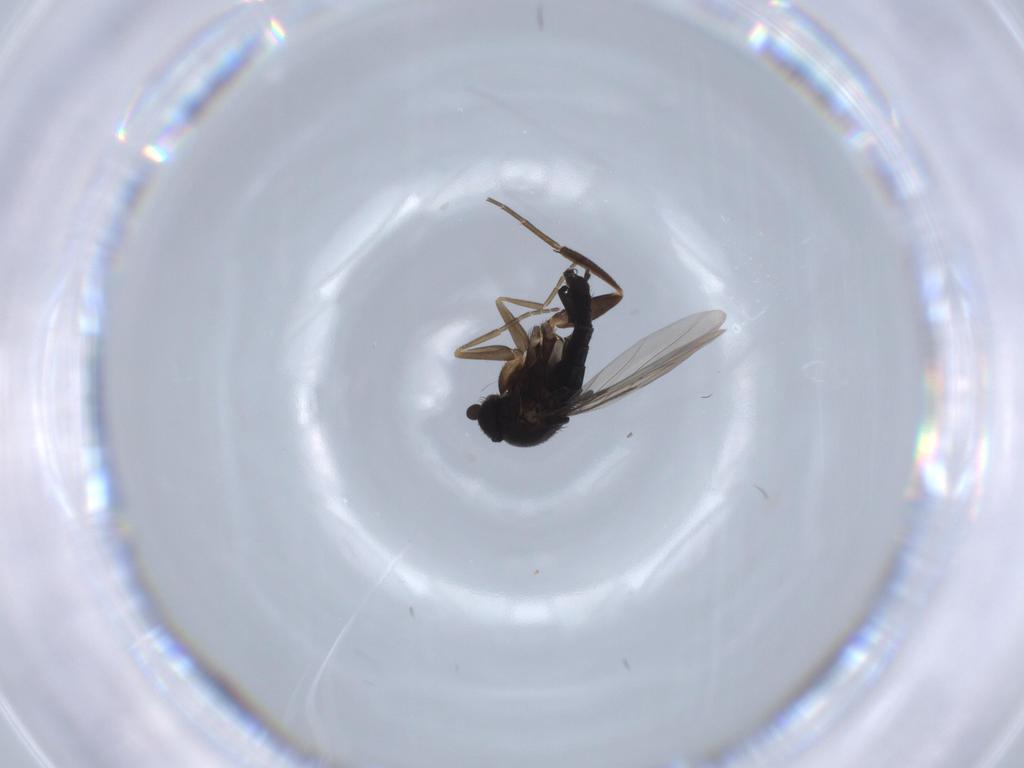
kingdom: Animalia
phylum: Arthropoda
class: Insecta
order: Diptera
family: Phoridae
